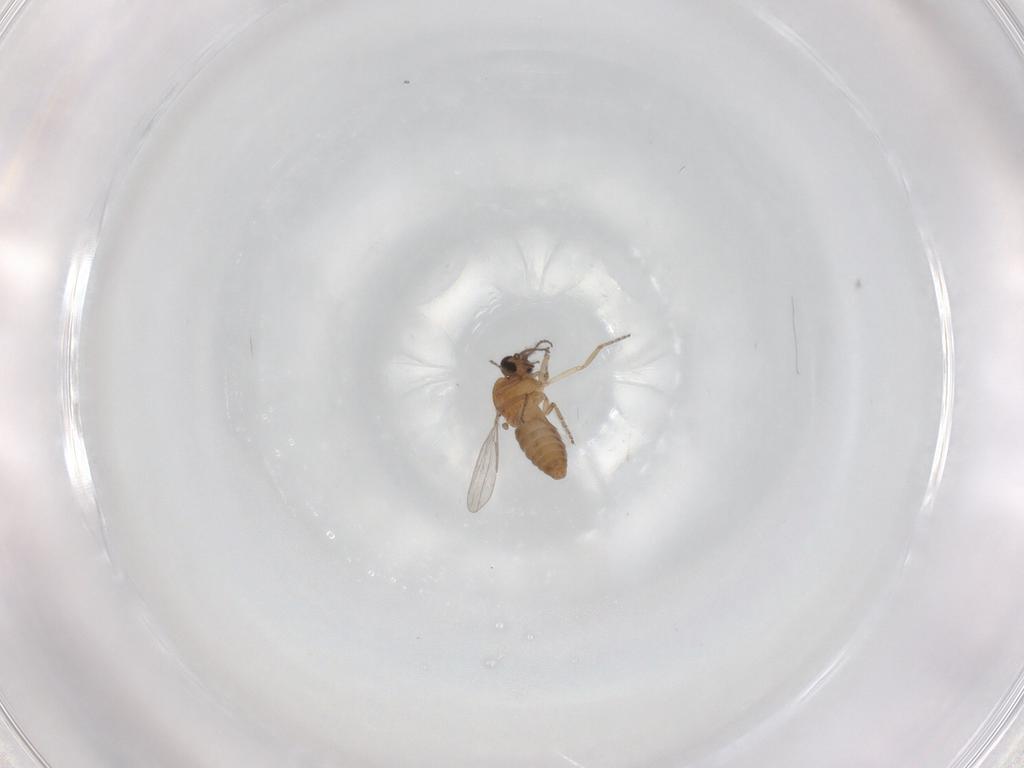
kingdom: Animalia
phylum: Arthropoda
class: Insecta
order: Diptera
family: Ceratopogonidae
